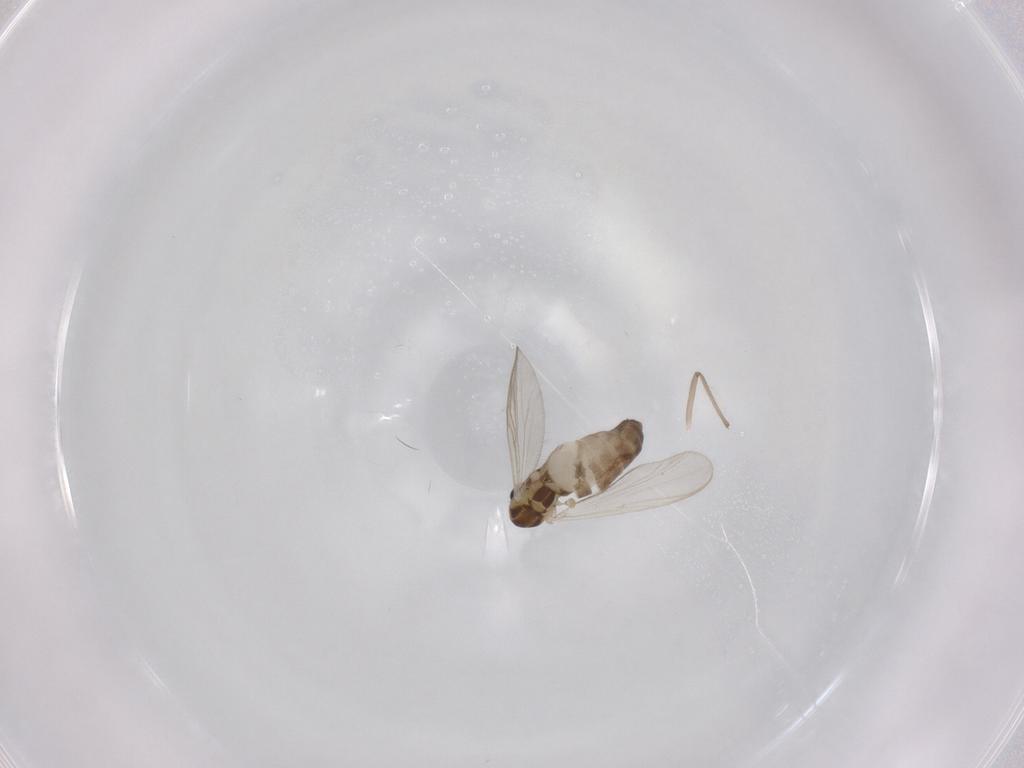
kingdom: Animalia
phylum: Arthropoda
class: Insecta
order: Diptera
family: Chironomidae
